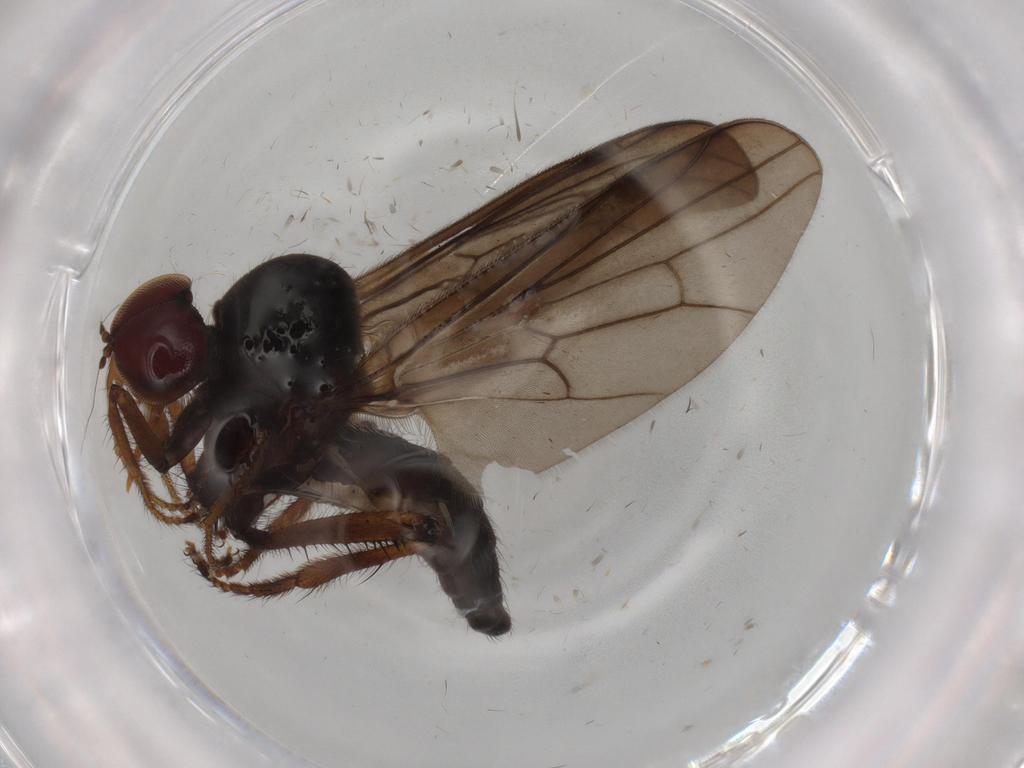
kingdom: Animalia
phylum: Arthropoda
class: Insecta
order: Diptera
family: Hybotidae
